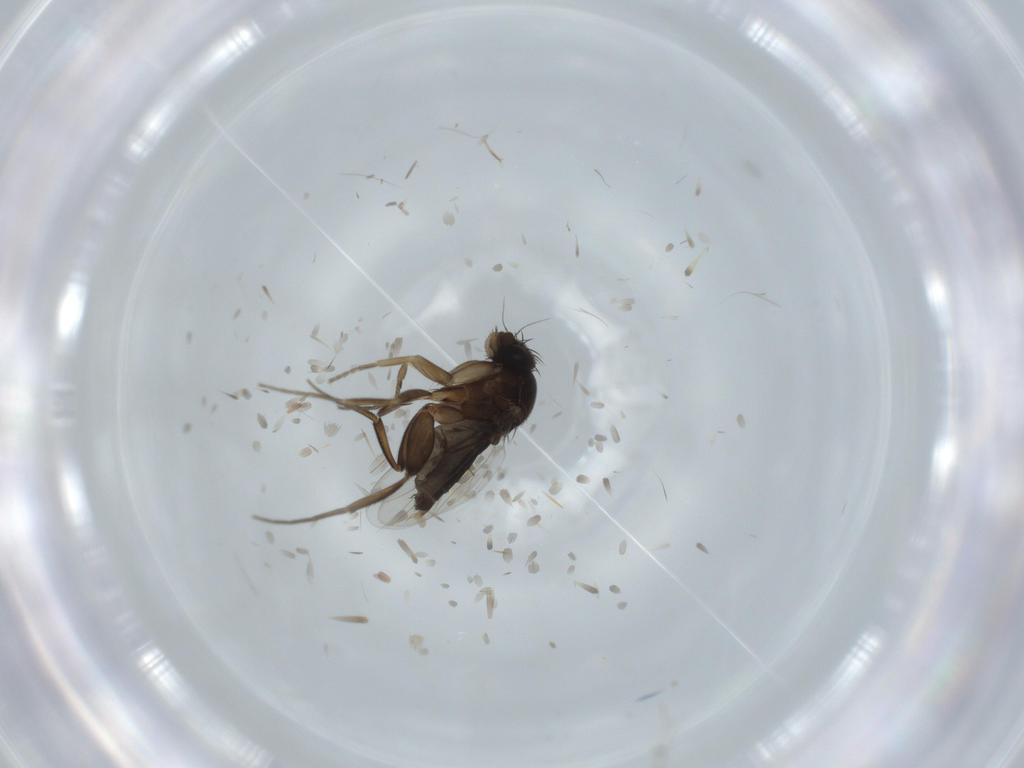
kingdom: Animalia
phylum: Arthropoda
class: Insecta
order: Diptera
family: Phoridae
